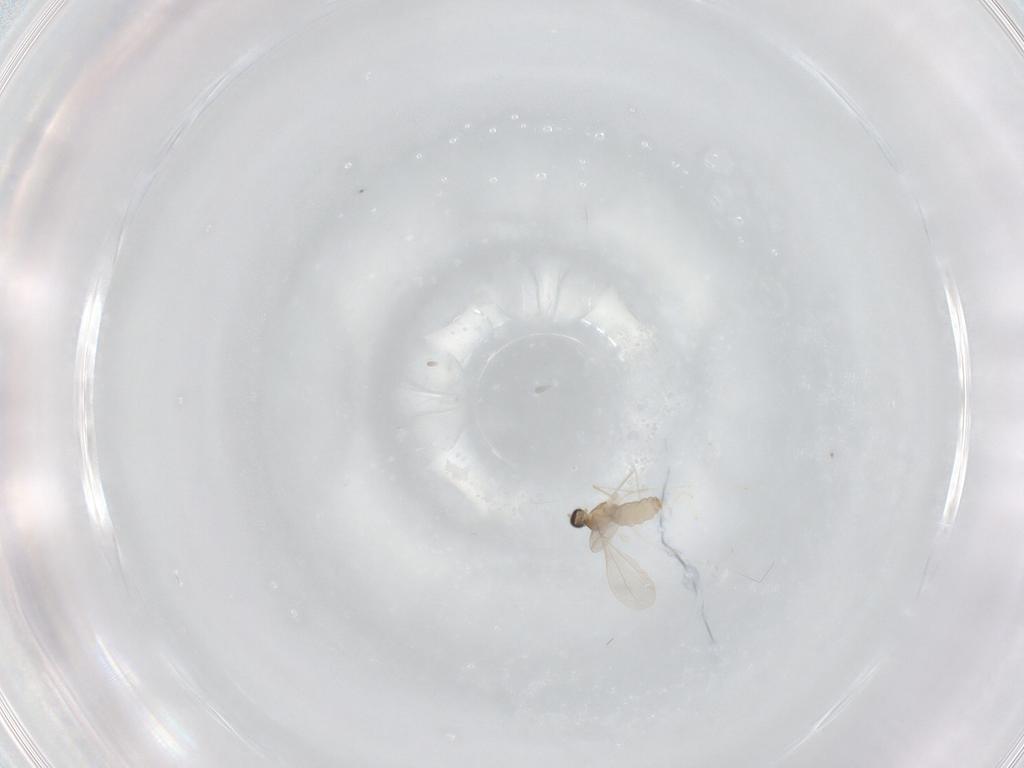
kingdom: Animalia
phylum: Arthropoda
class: Insecta
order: Diptera
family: Cecidomyiidae
